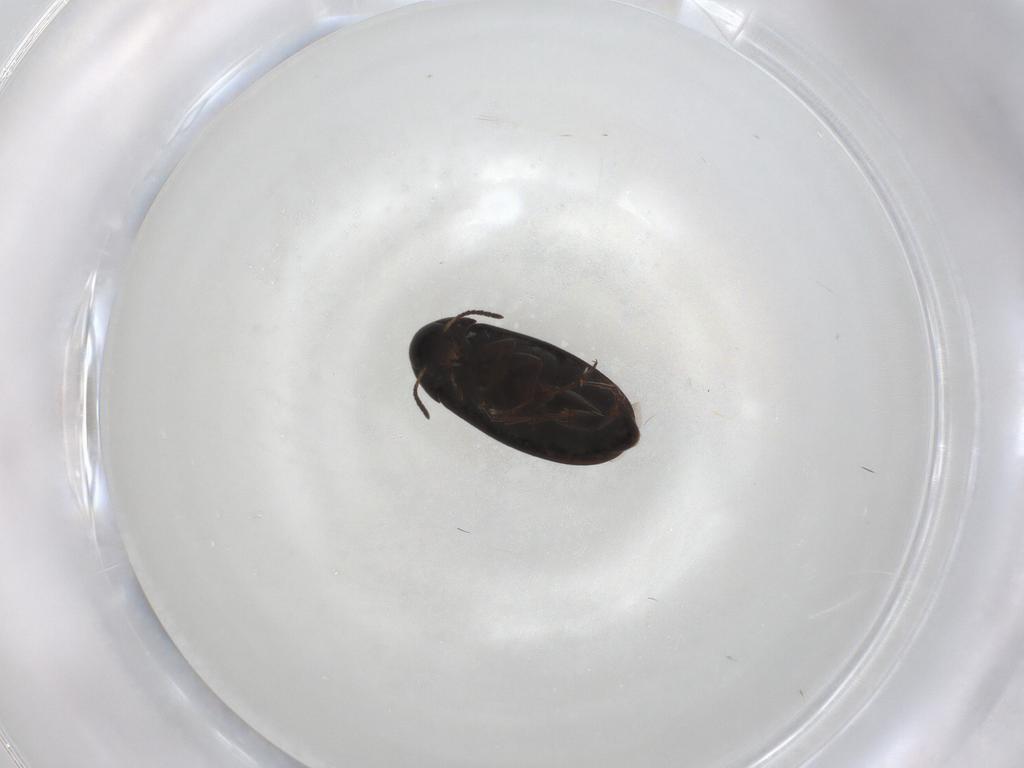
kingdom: Animalia
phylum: Arthropoda
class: Insecta
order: Coleoptera
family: Scraptiidae
